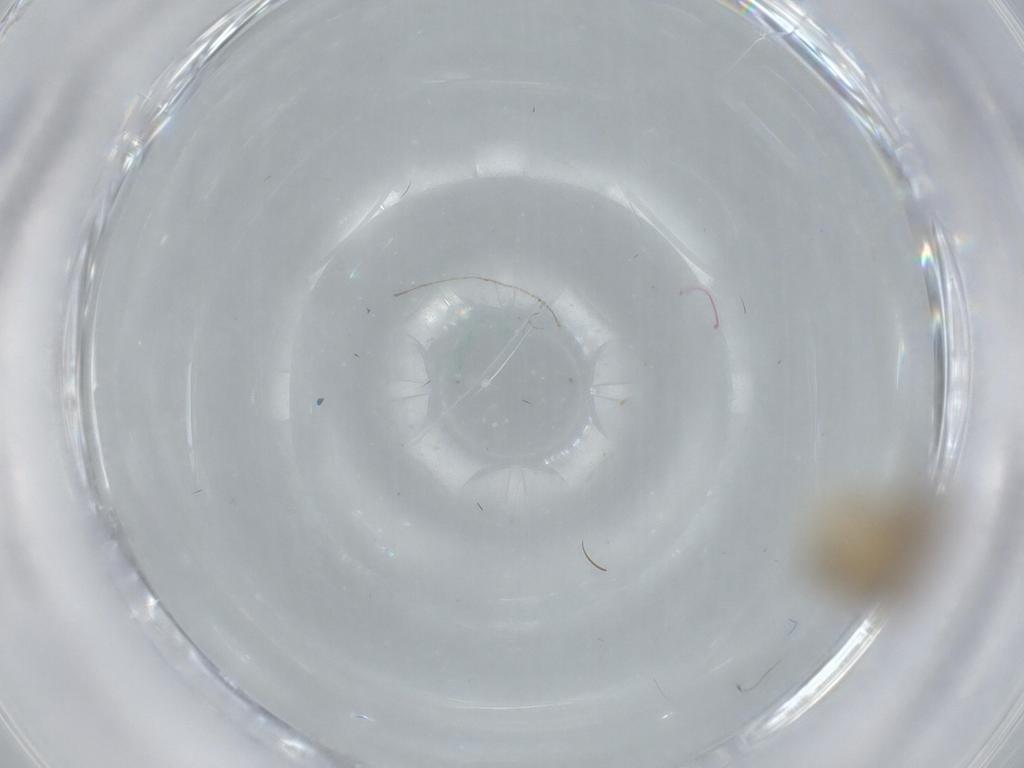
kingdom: Animalia
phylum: Arthropoda
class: Insecta
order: Psocodea
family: Caeciliusidae
